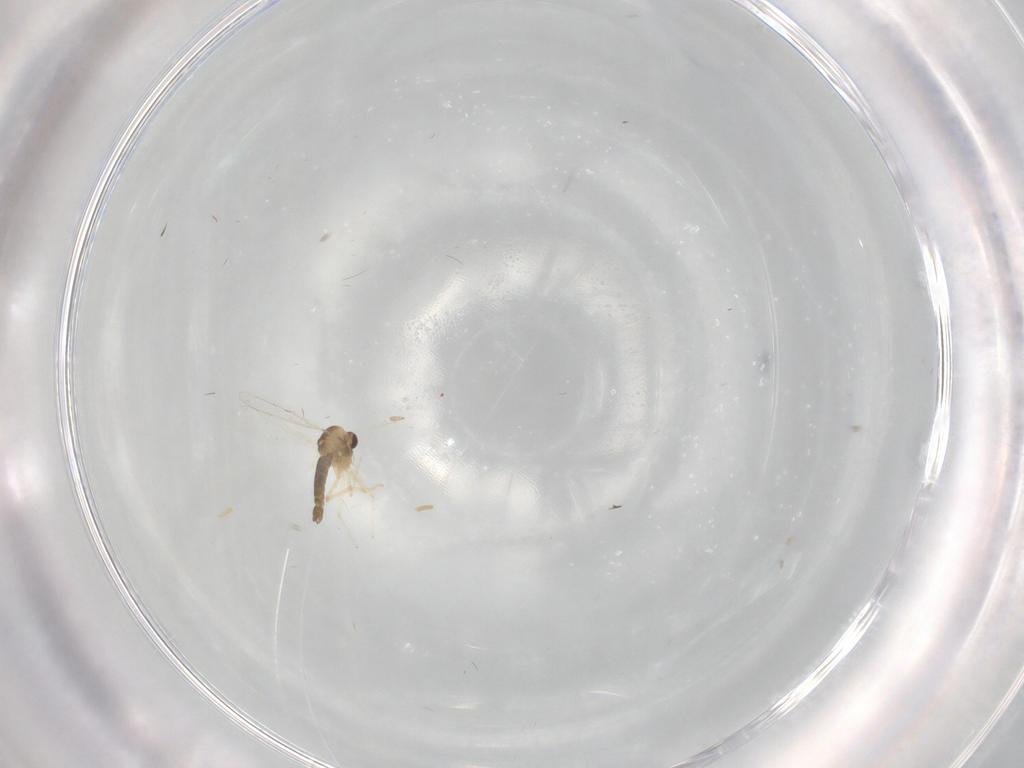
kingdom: Animalia
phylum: Arthropoda
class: Insecta
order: Diptera
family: Chironomidae
